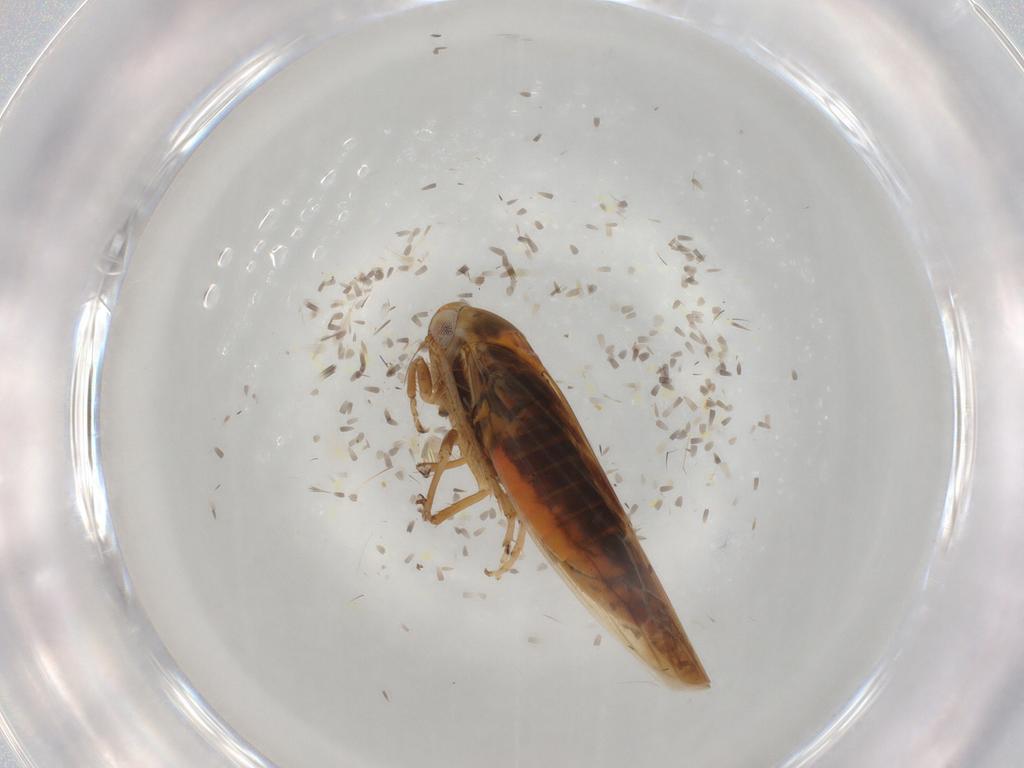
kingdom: Animalia
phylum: Arthropoda
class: Insecta
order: Hemiptera
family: Cicadellidae
